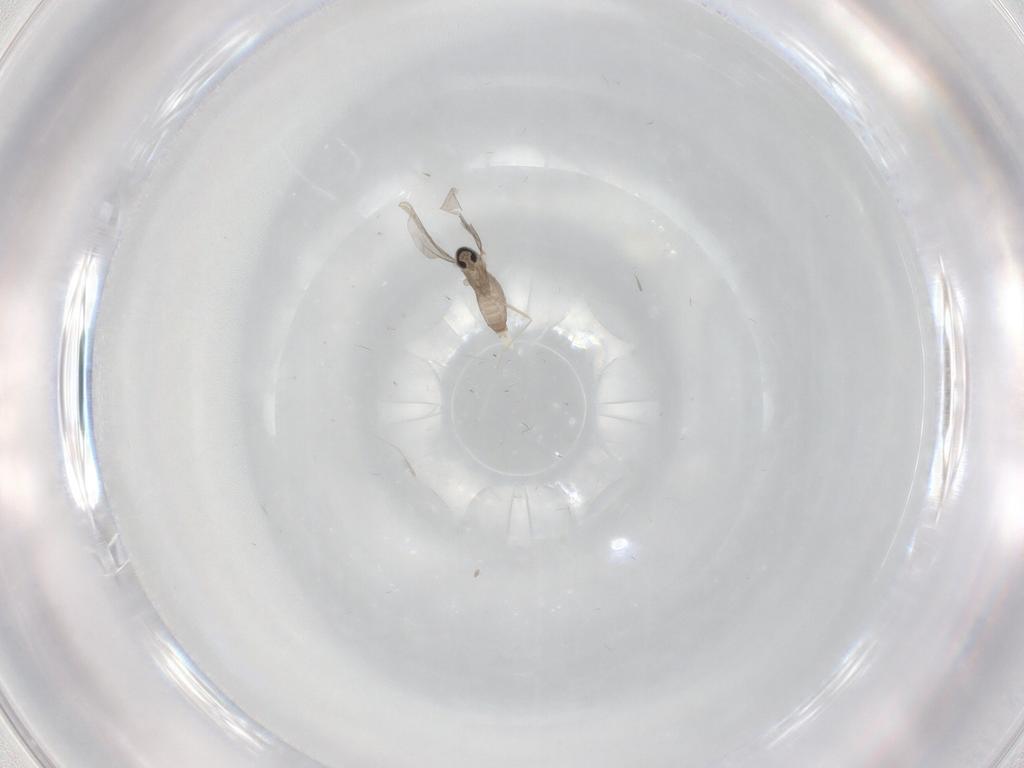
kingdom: Animalia
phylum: Arthropoda
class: Insecta
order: Diptera
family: Cecidomyiidae
